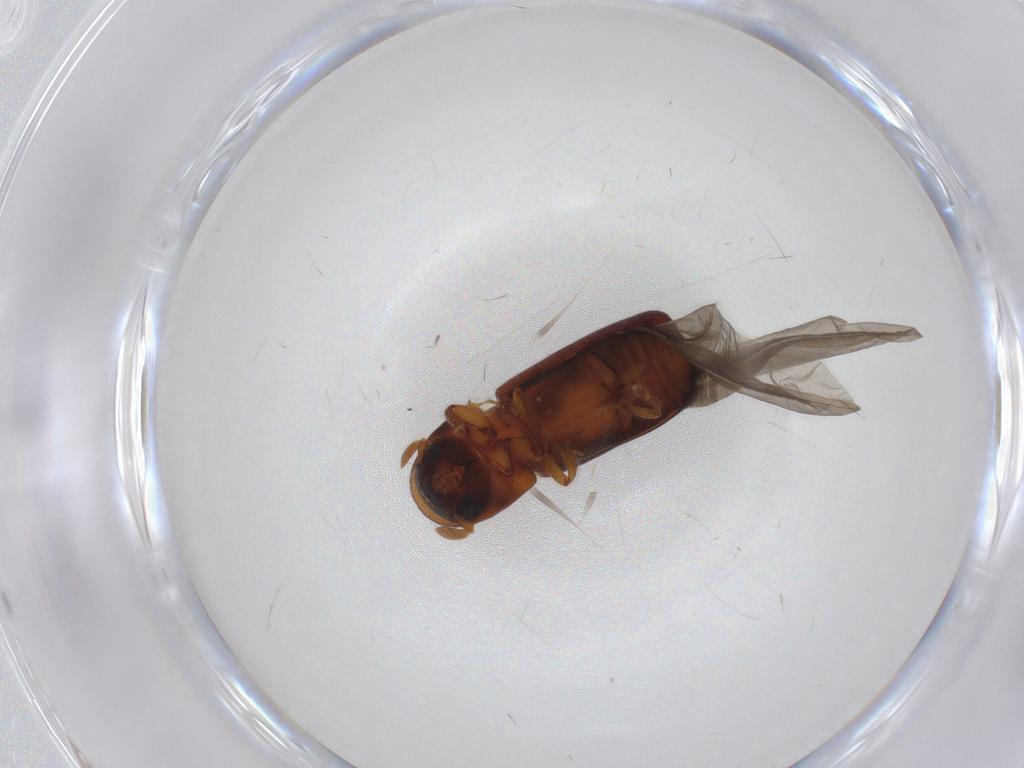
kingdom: Animalia
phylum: Arthropoda
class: Insecta
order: Coleoptera
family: Curculionidae
